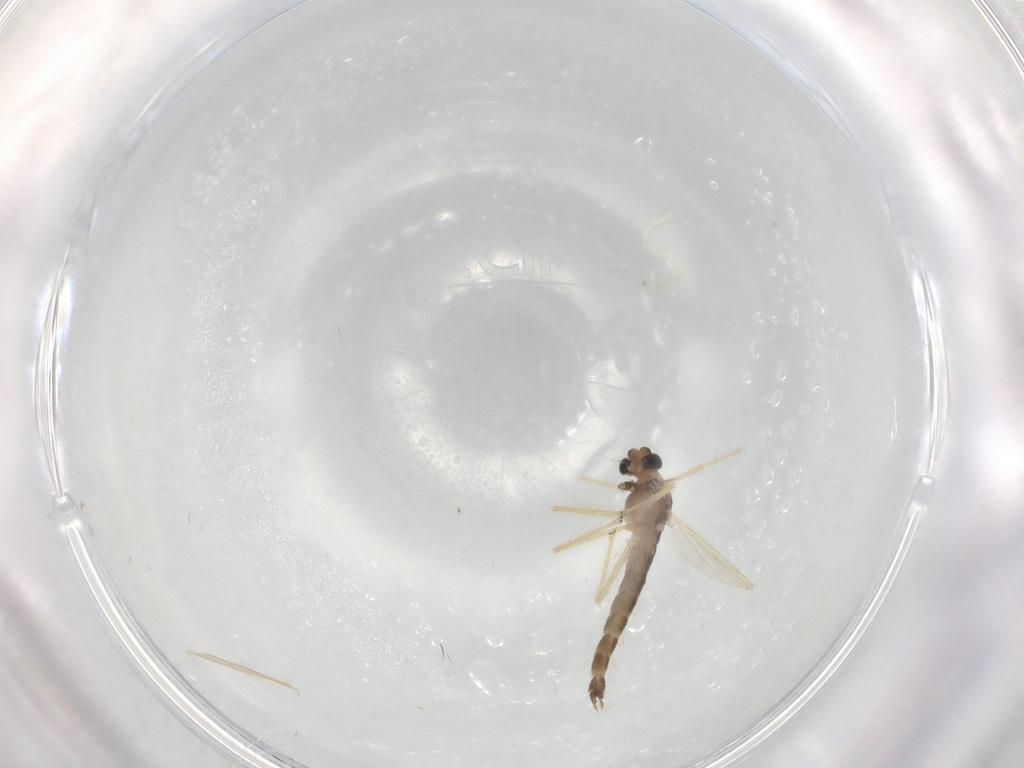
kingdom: Animalia
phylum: Arthropoda
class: Insecta
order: Diptera
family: Chironomidae
